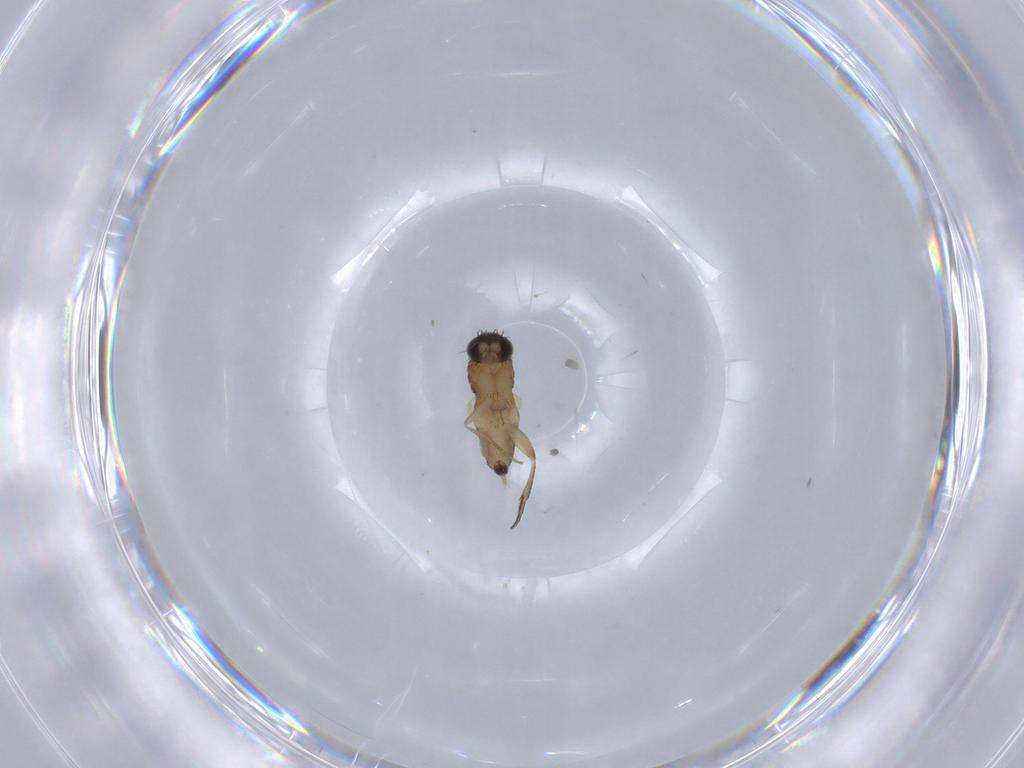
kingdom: Animalia
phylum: Arthropoda
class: Insecta
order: Diptera
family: Phoridae
